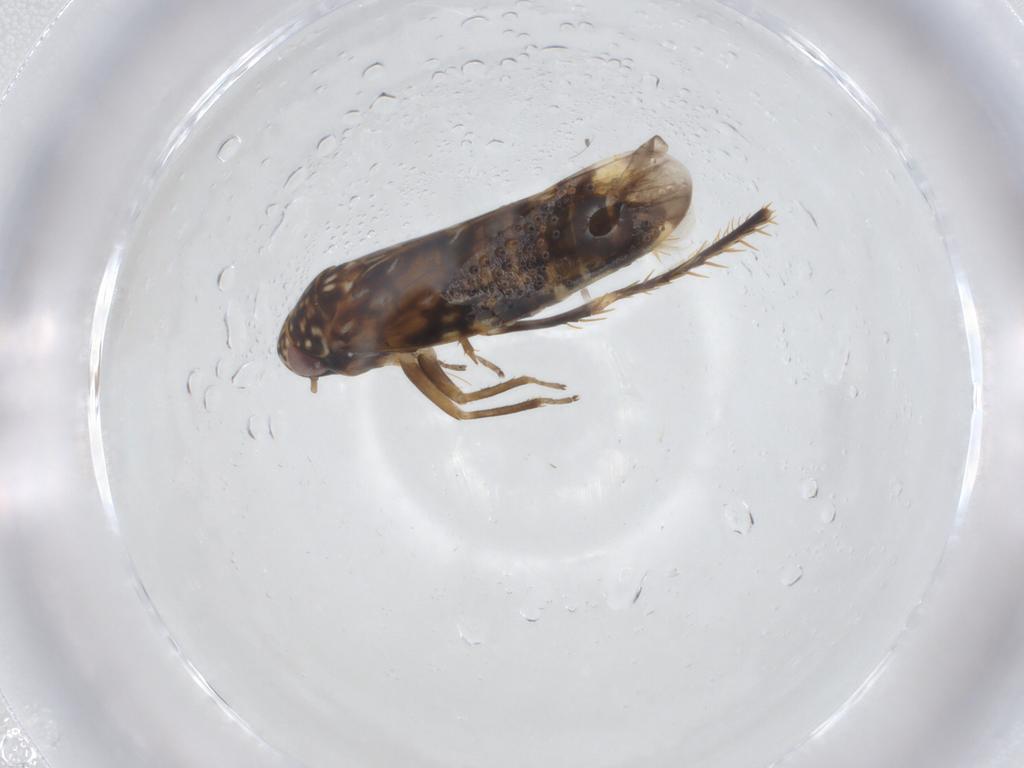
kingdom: Animalia
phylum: Arthropoda
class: Insecta
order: Hemiptera
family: Cicadellidae
